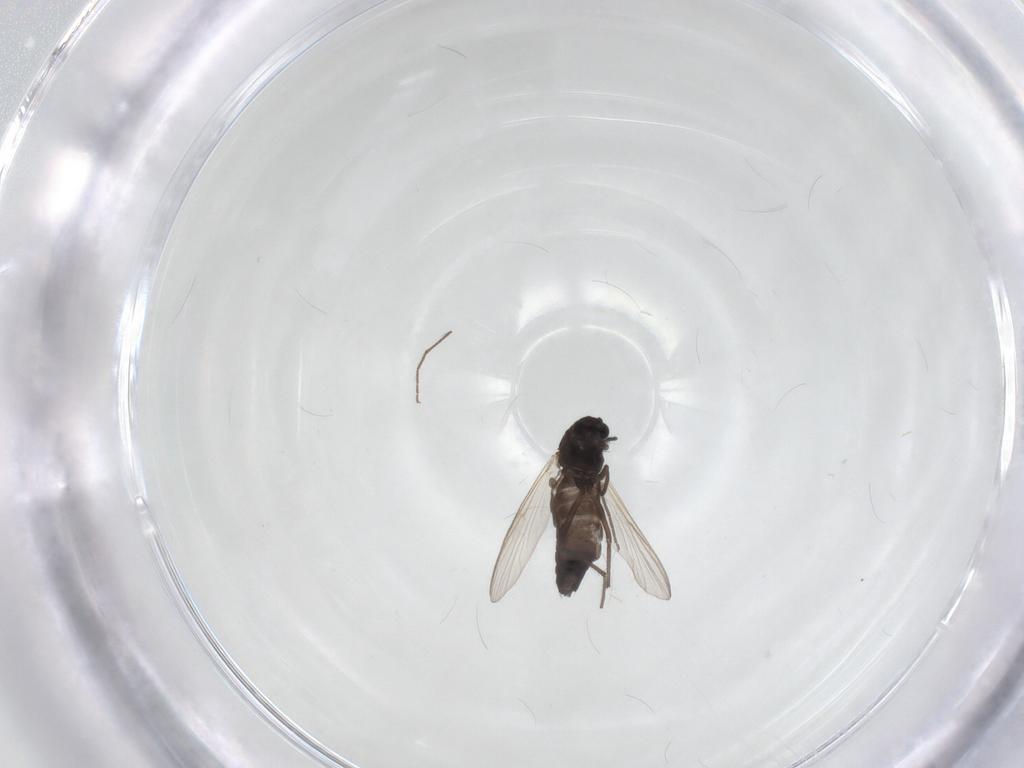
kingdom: Animalia
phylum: Arthropoda
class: Insecta
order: Diptera
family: Chironomidae
